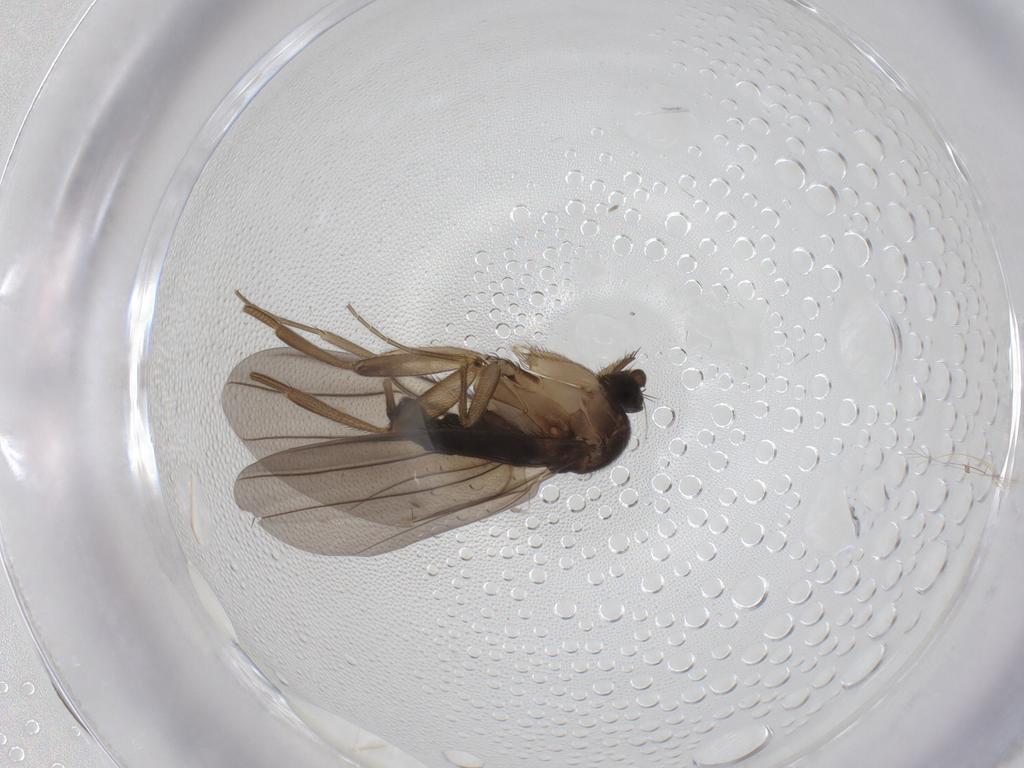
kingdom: Animalia
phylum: Arthropoda
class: Insecta
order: Diptera
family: Phoridae
